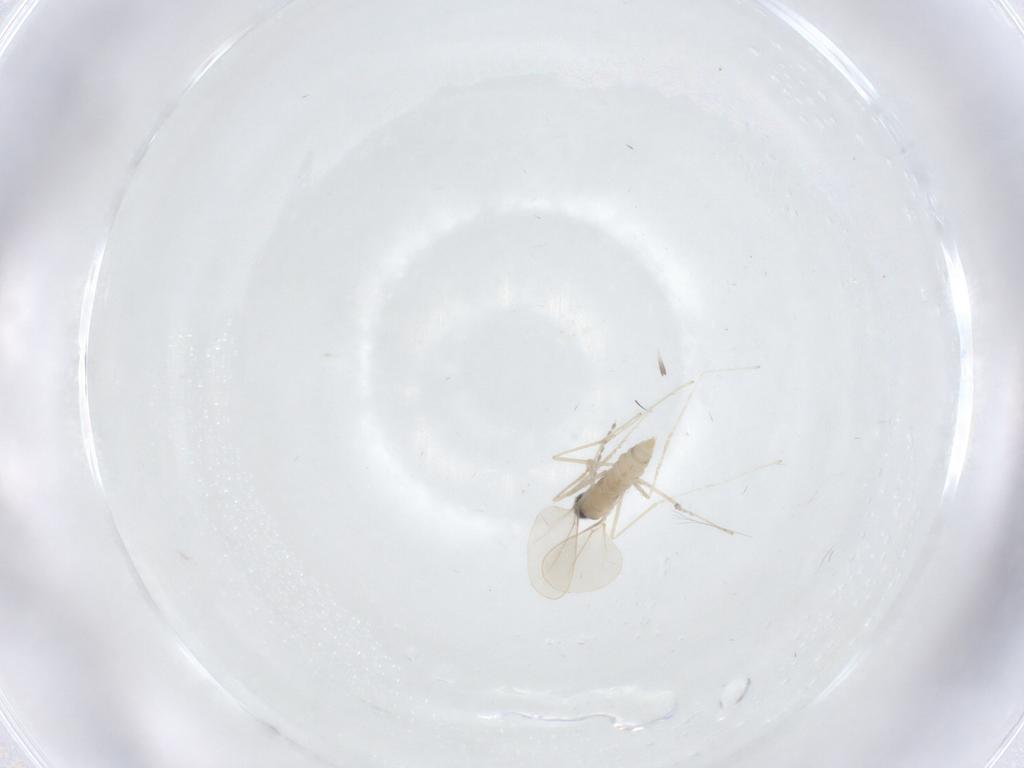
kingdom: Animalia
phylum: Arthropoda
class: Insecta
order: Diptera
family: Cecidomyiidae
